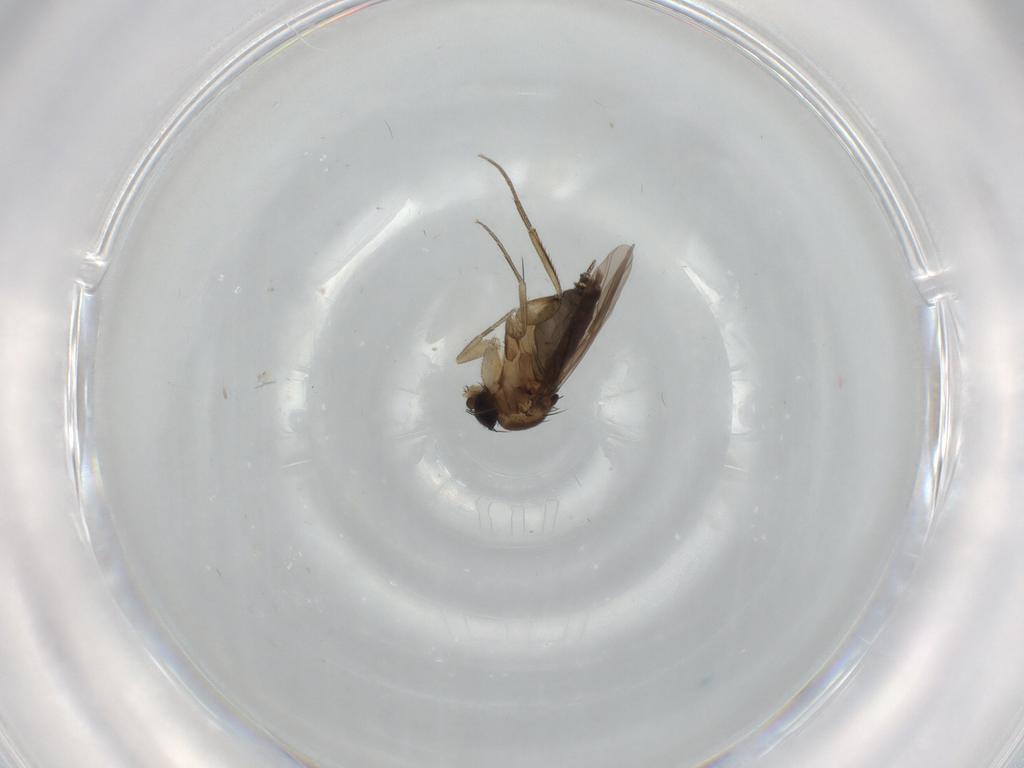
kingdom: Animalia
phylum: Arthropoda
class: Insecta
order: Diptera
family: Phoridae
